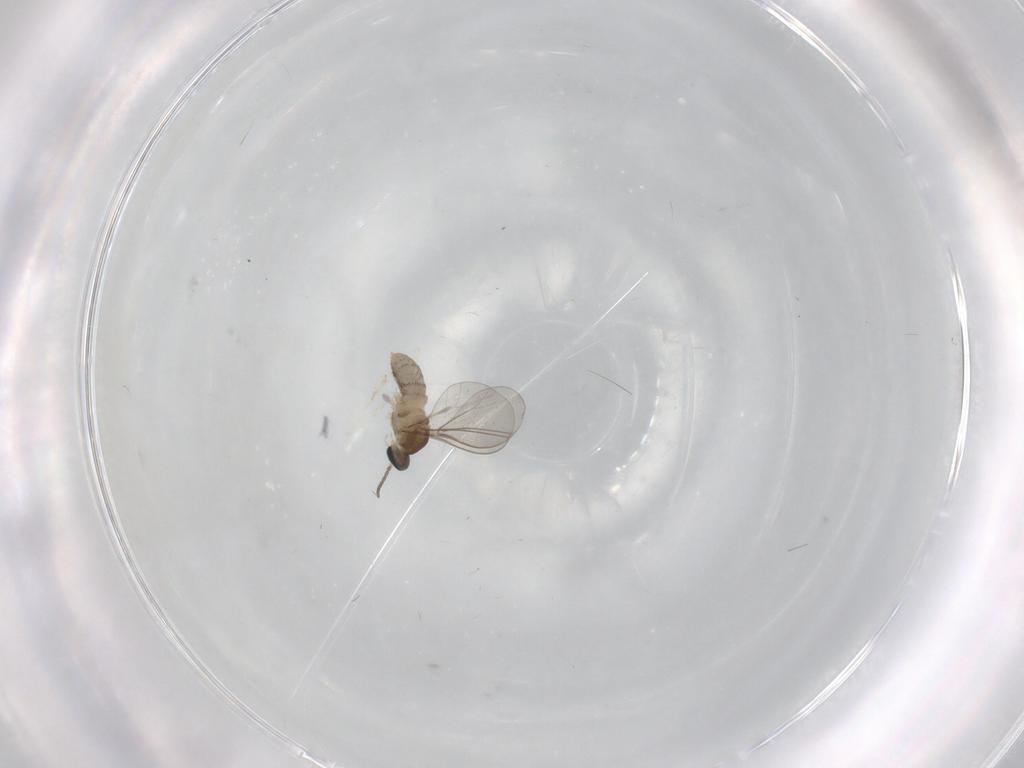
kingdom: Animalia
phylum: Arthropoda
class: Insecta
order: Diptera
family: Cecidomyiidae
